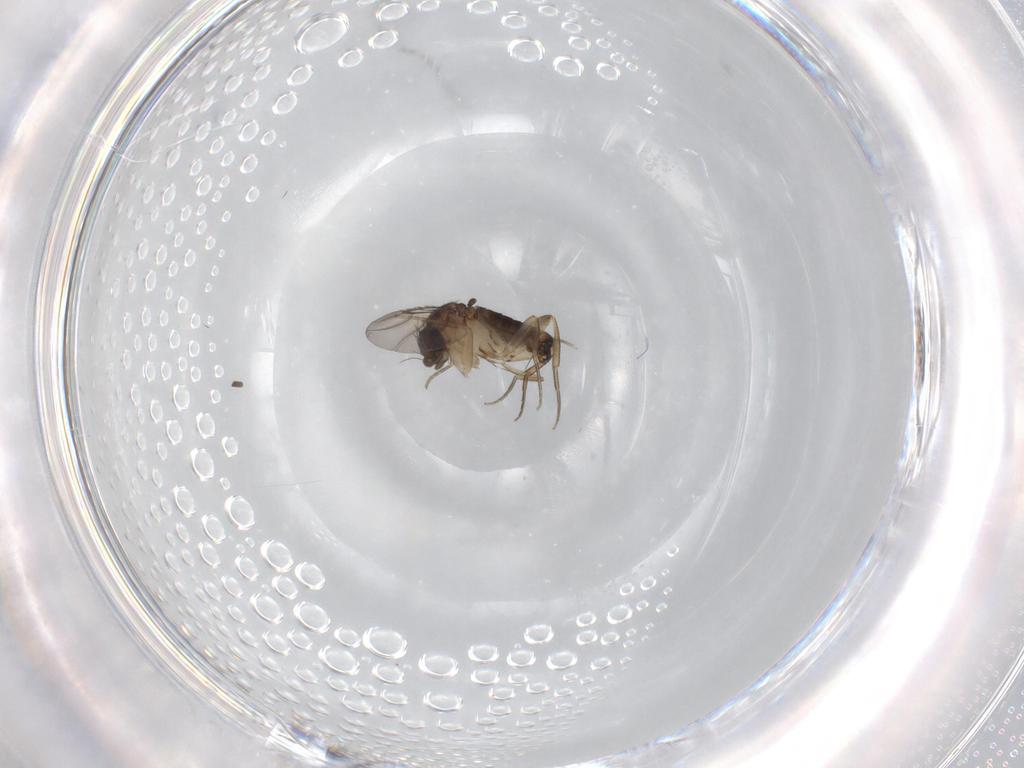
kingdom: Animalia
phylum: Arthropoda
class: Insecta
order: Diptera
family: Phoridae
